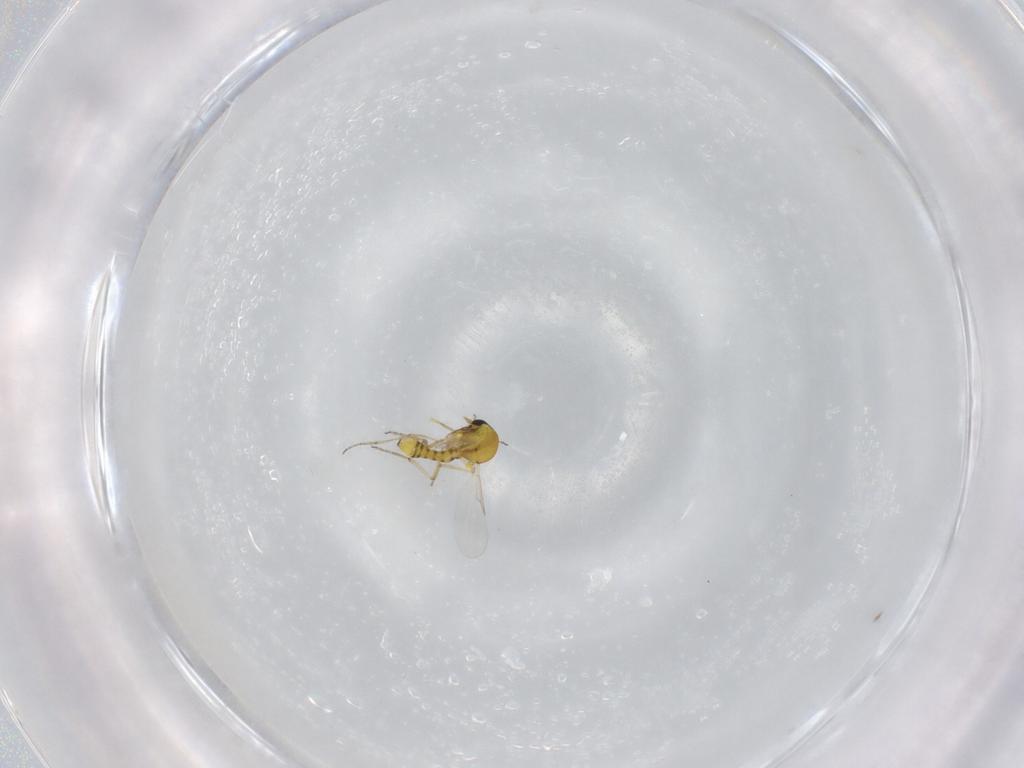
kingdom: Animalia
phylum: Arthropoda
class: Insecta
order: Diptera
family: Ceratopogonidae
